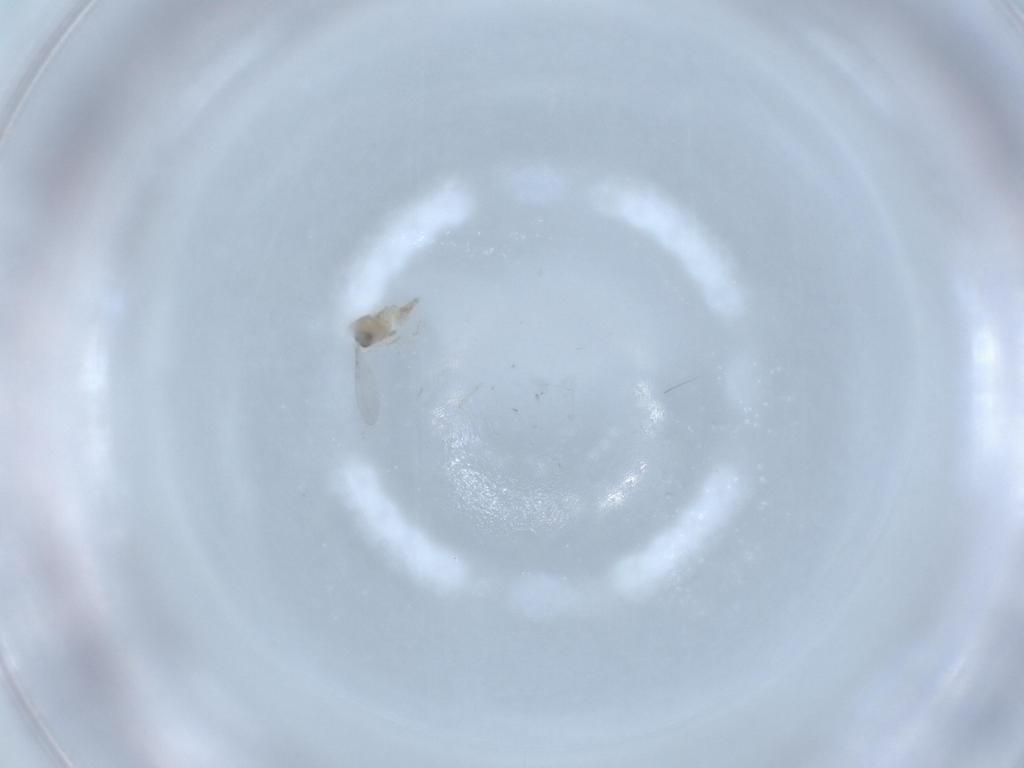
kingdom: Animalia
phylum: Arthropoda
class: Insecta
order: Diptera
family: Cecidomyiidae
